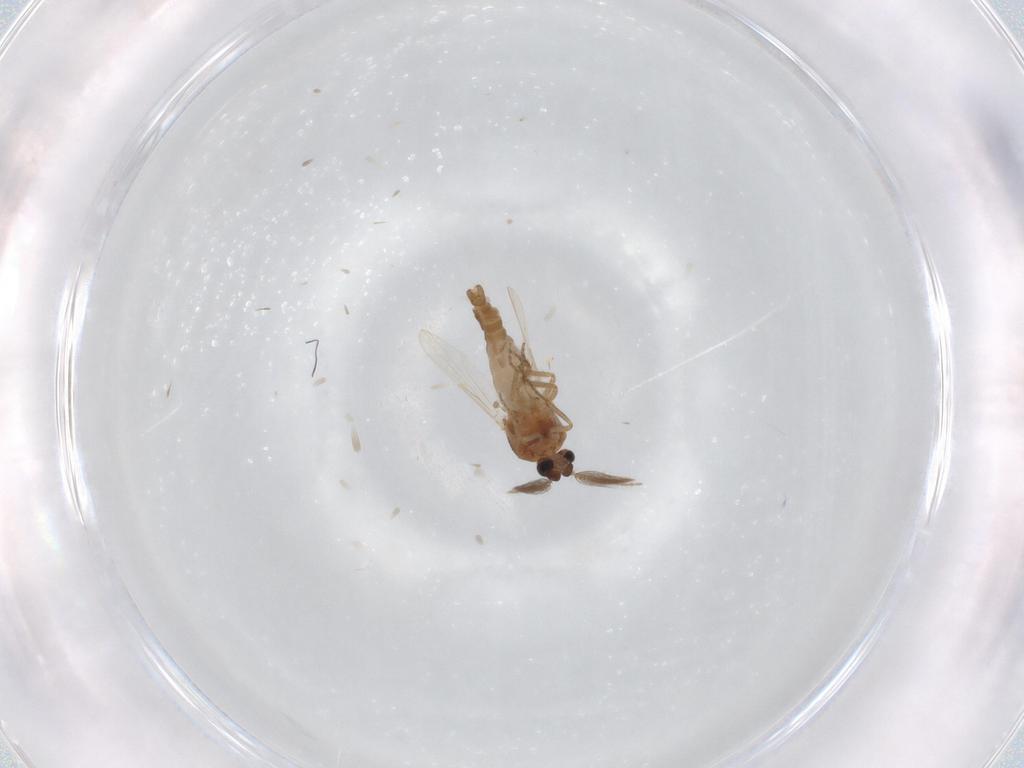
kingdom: Animalia
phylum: Arthropoda
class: Insecta
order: Diptera
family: Ceratopogonidae
